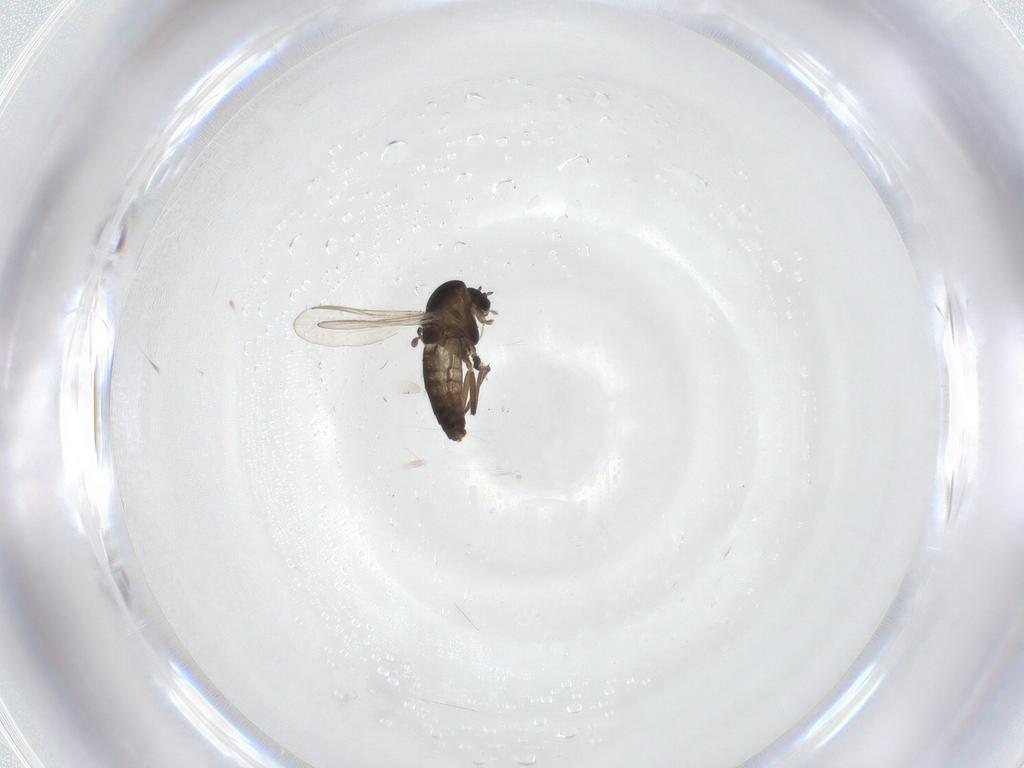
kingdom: Animalia
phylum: Arthropoda
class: Insecta
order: Diptera
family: Chironomidae
